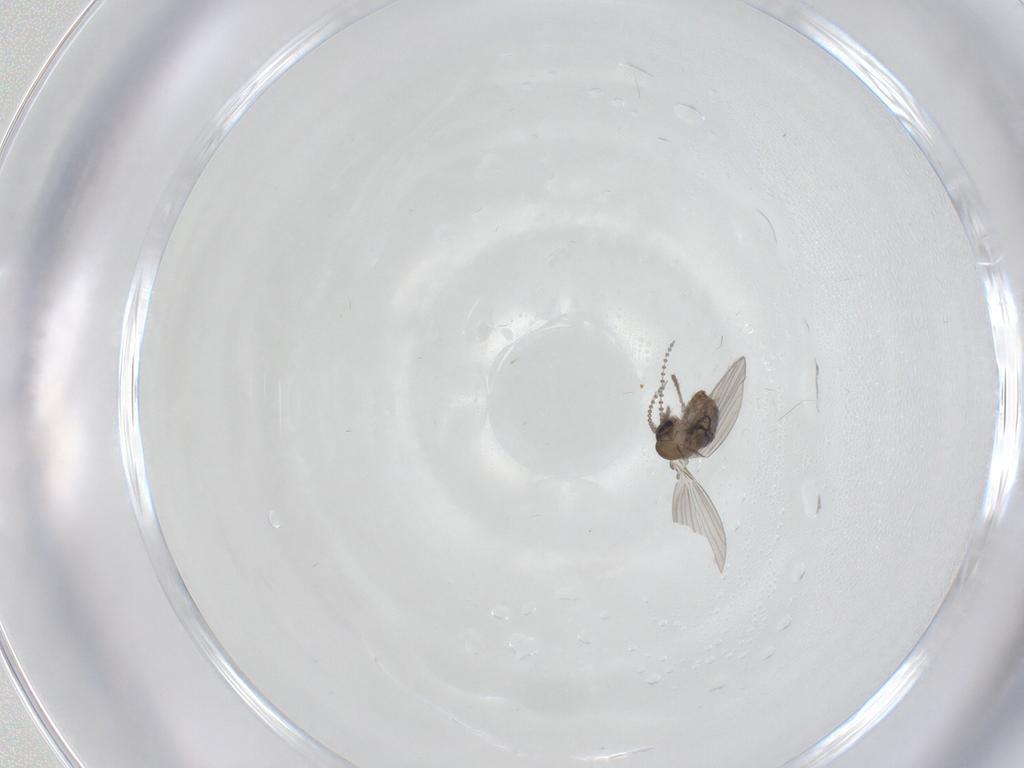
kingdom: Animalia
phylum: Arthropoda
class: Insecta
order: Diptera
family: Psychodidae
